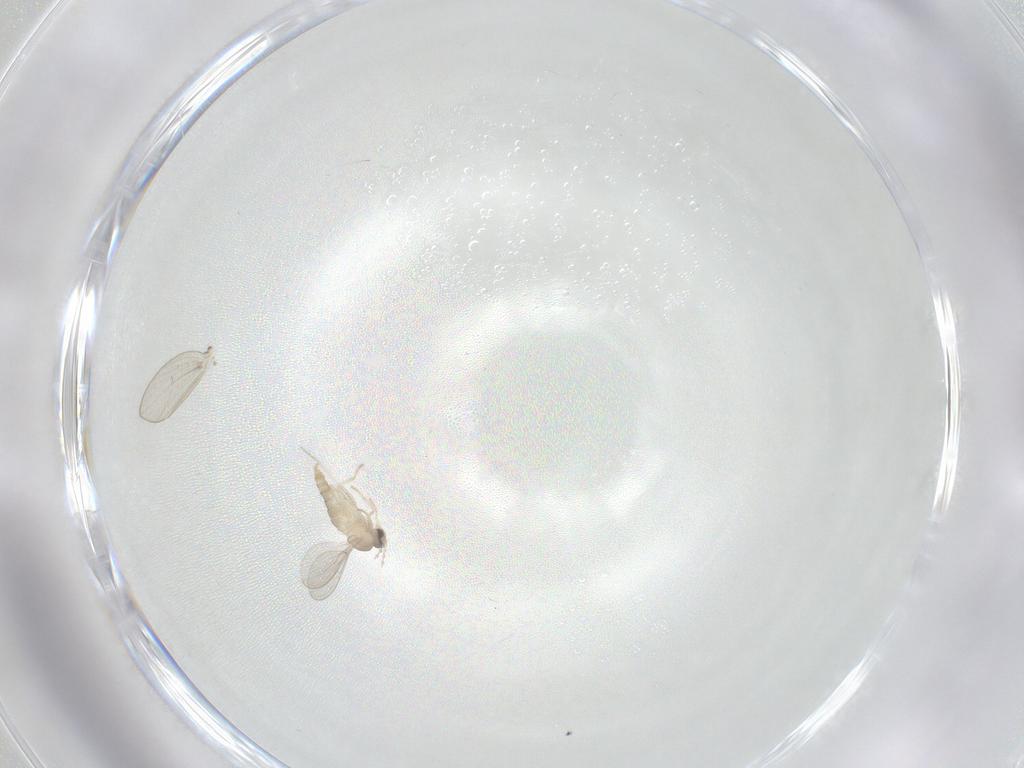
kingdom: Animalia
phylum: Arthropoda
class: Insecta
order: Diptera
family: Cecidomyiidae
